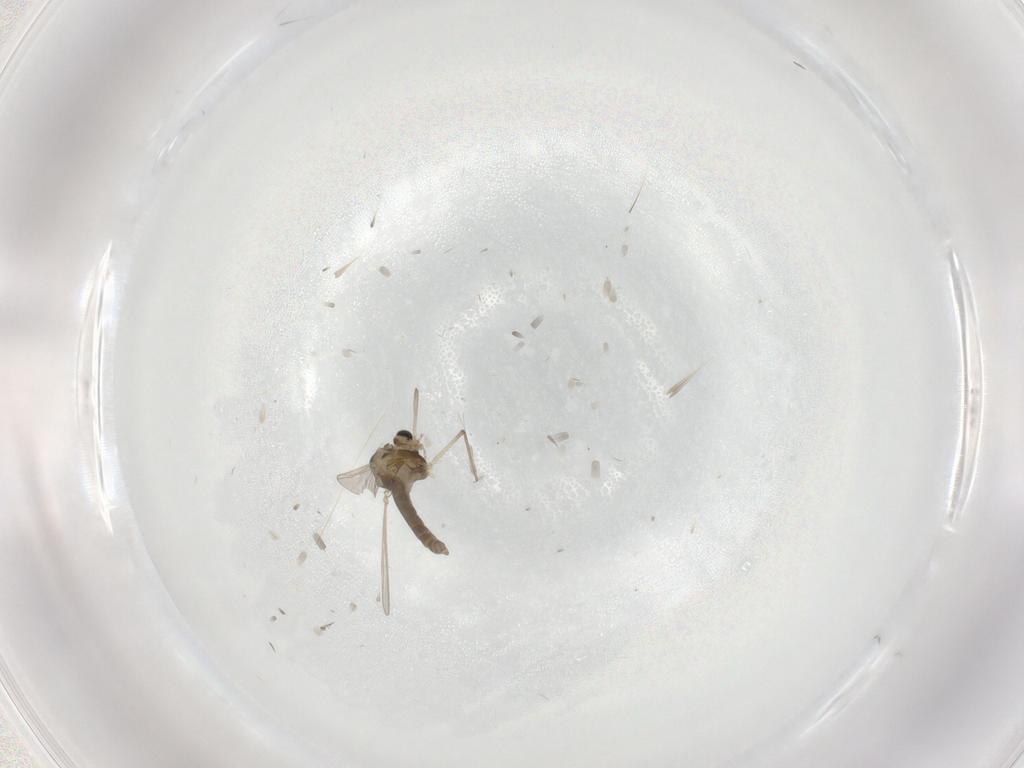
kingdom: Animalia
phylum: Arthropoda
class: Insecta
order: Diptera
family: Chironomidae
